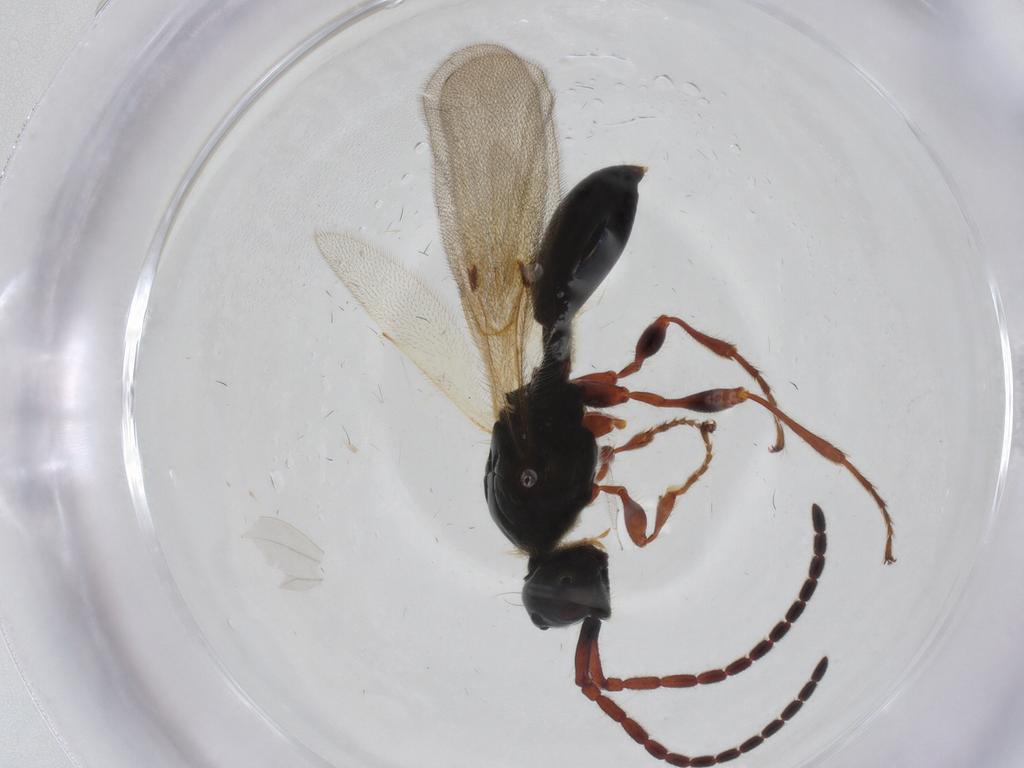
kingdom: Animalia
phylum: Arthropoda
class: Insecta
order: Hymenoptera
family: Diapriidae
